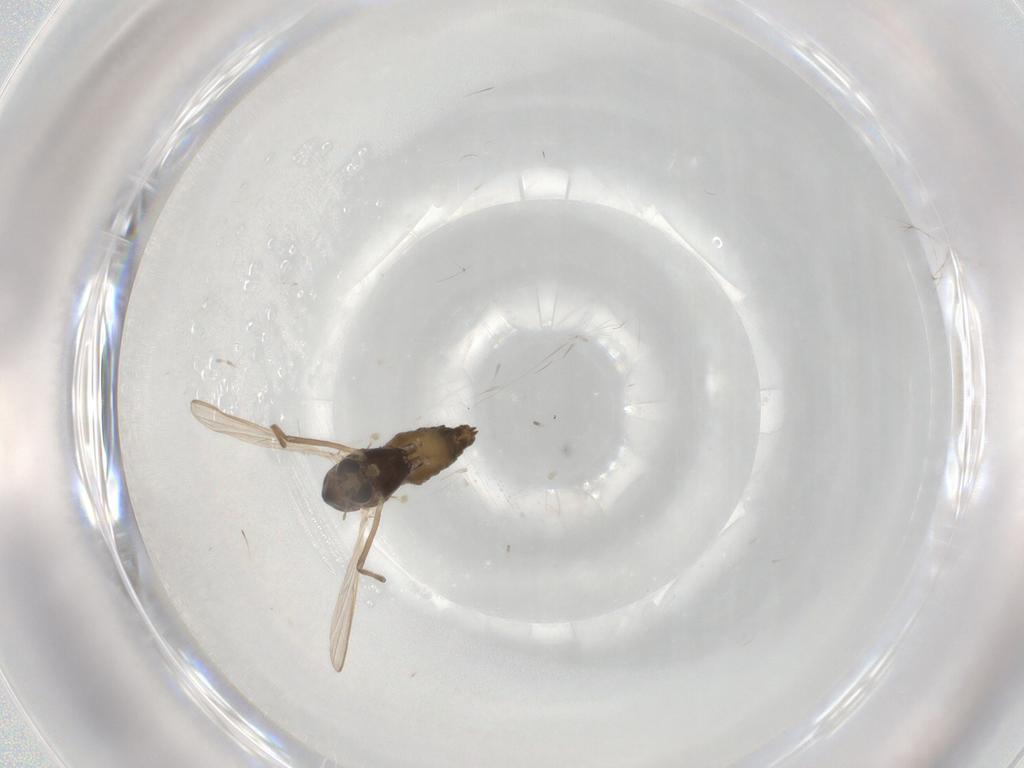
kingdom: Animalia
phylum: Arthropoda
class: Insecta
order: Diptera
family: Chironomidae
